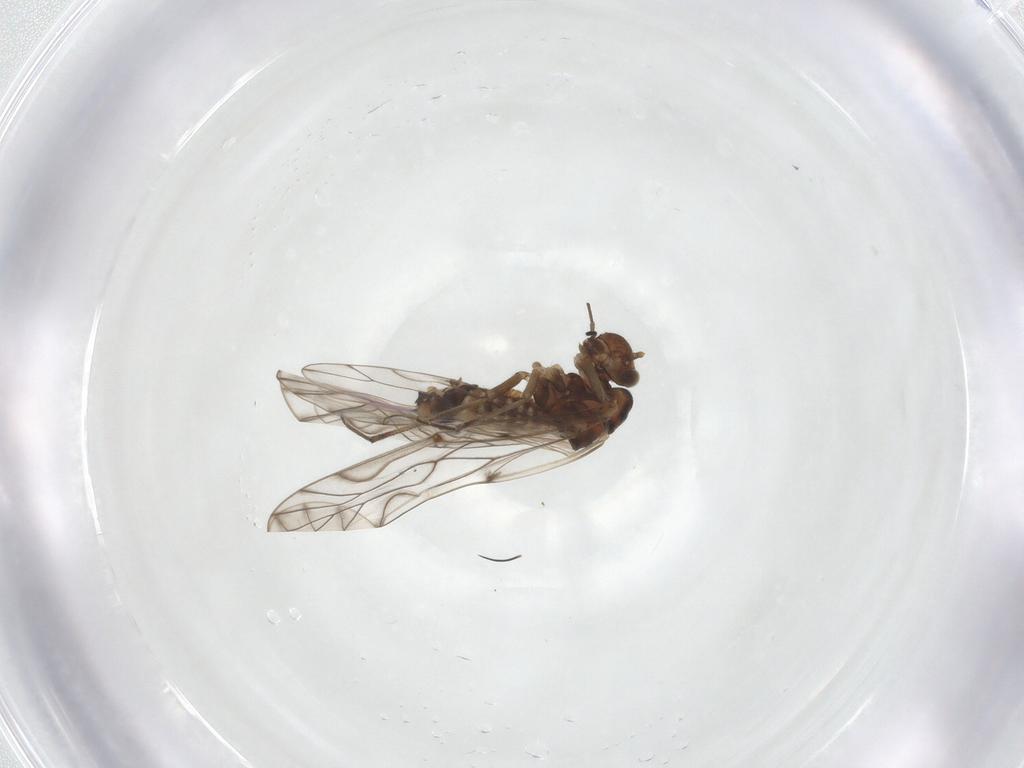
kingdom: Animalia
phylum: Arthropoda
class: Insecta
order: Psocodea
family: Lachesillidae
